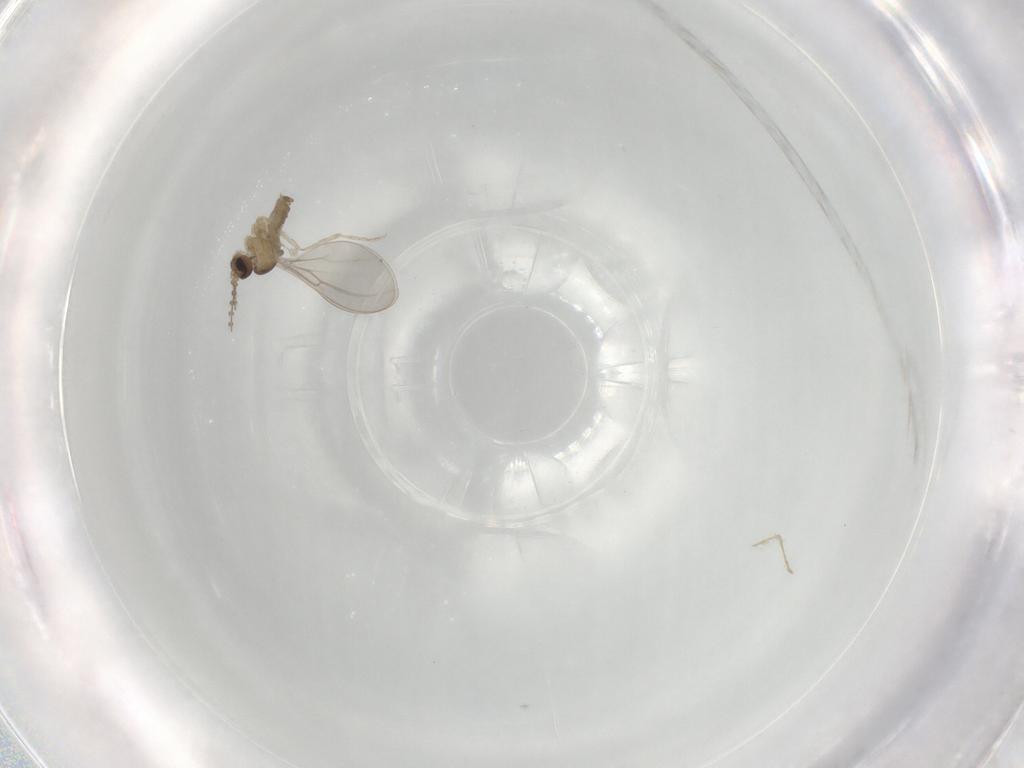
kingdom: Animalia
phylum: Arthropoda
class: Insecta
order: Diptera
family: Cecidomyiidae
